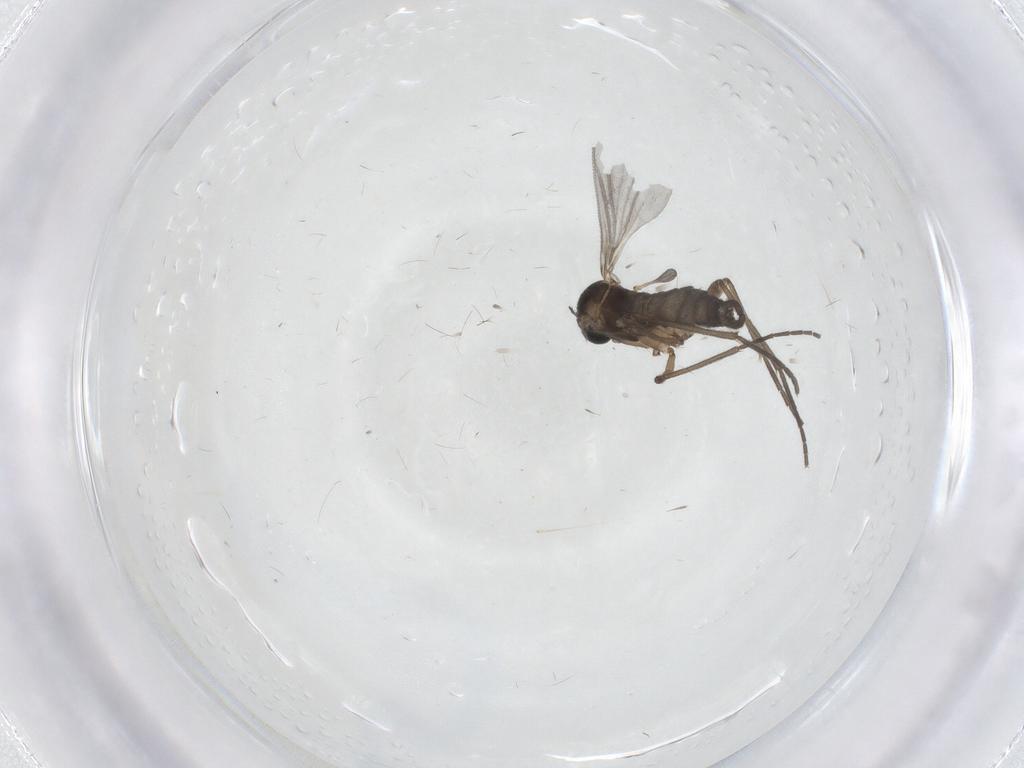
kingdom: Animalia
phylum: Arthropoda
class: Insecta
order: Diptera
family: Sciaridae
